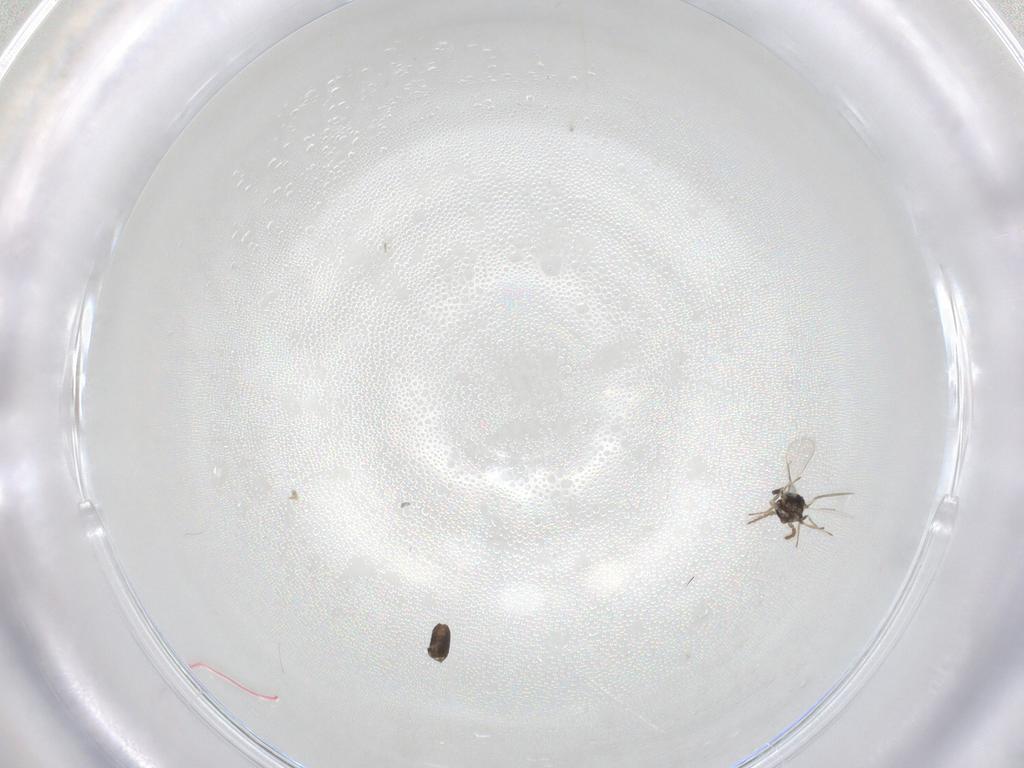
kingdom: Animalia
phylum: Arthropoda
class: Insecta
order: Hymenoptera
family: Eulophidae
